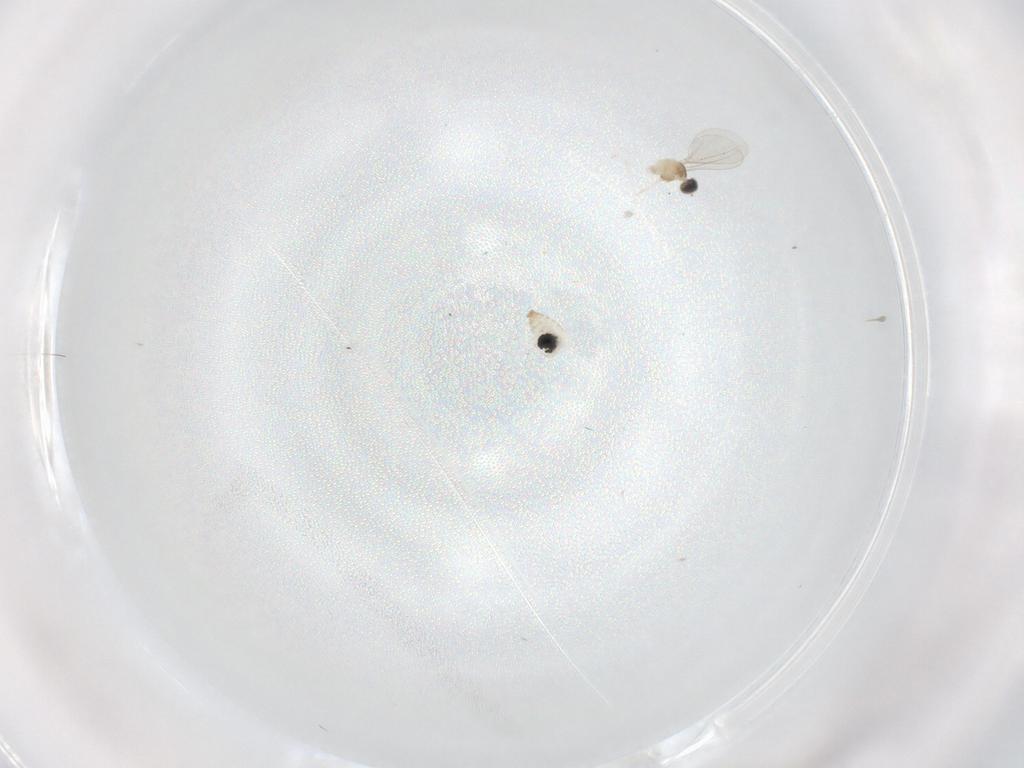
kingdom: Animalia
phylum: Arthropoda
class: Insecta
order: Diptera
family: Cecidomyiidae
